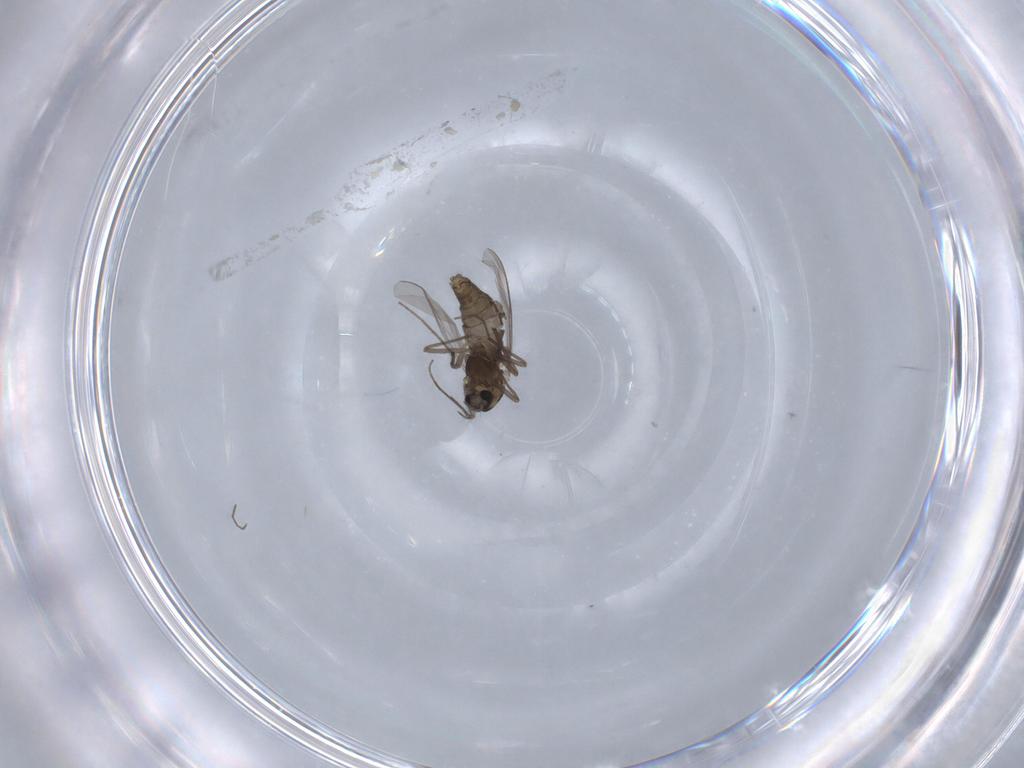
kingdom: Animalia
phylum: Arthropoda
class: Insecta
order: Diptera
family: Chironomidae
